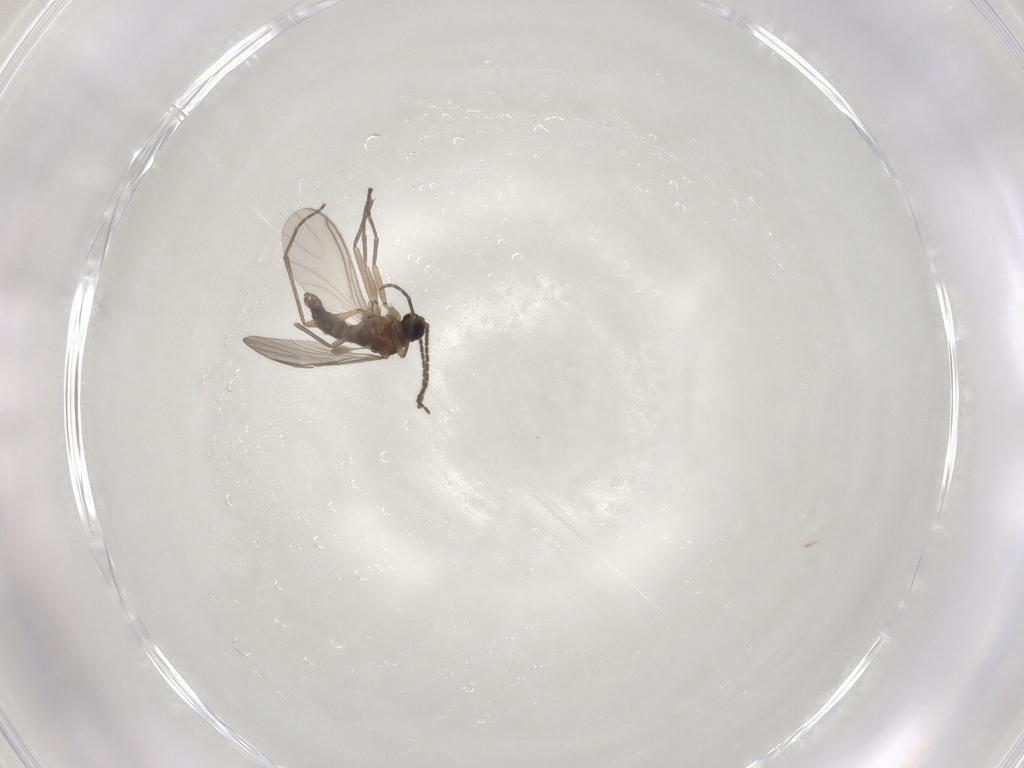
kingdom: Animalia
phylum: Arthropoda
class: Insecta
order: Diptera
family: Sciaridae
